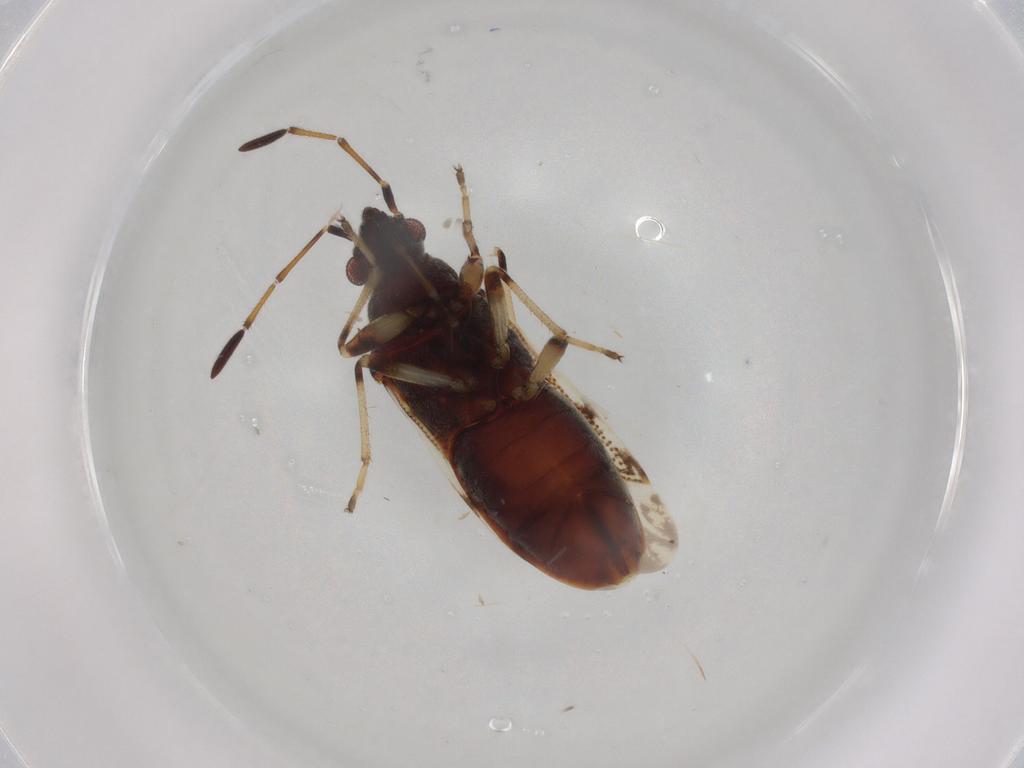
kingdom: Animalia
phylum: Arthropoda
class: Insecta
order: Hemiptera
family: Rhyparochromidae
